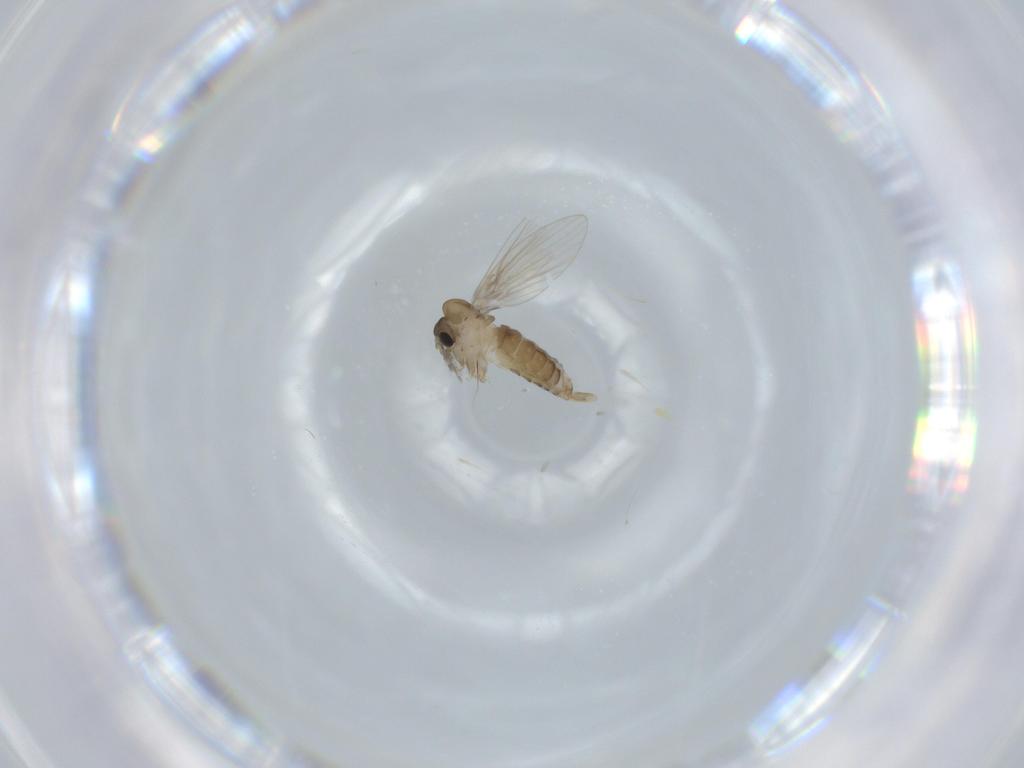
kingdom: Animalia
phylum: Arthropoda
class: Insecta
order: Diptera
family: Psychodidae
